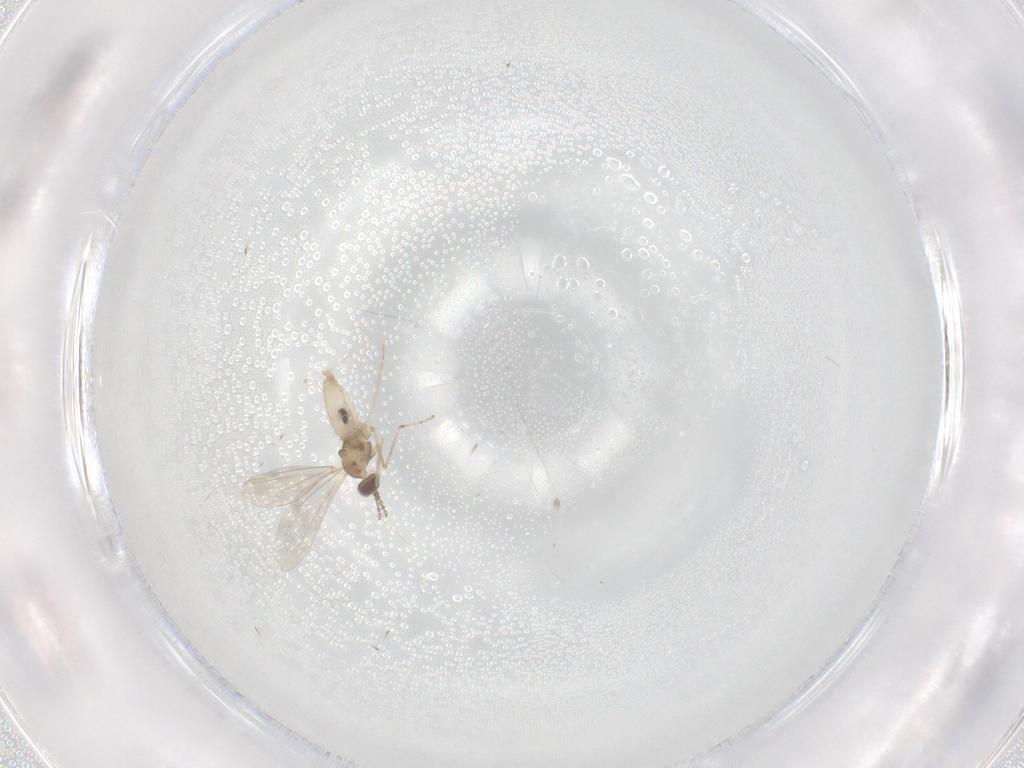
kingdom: Animalia
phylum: Arthropoda
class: Insecta
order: Diptera
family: Cecidomyiidae
